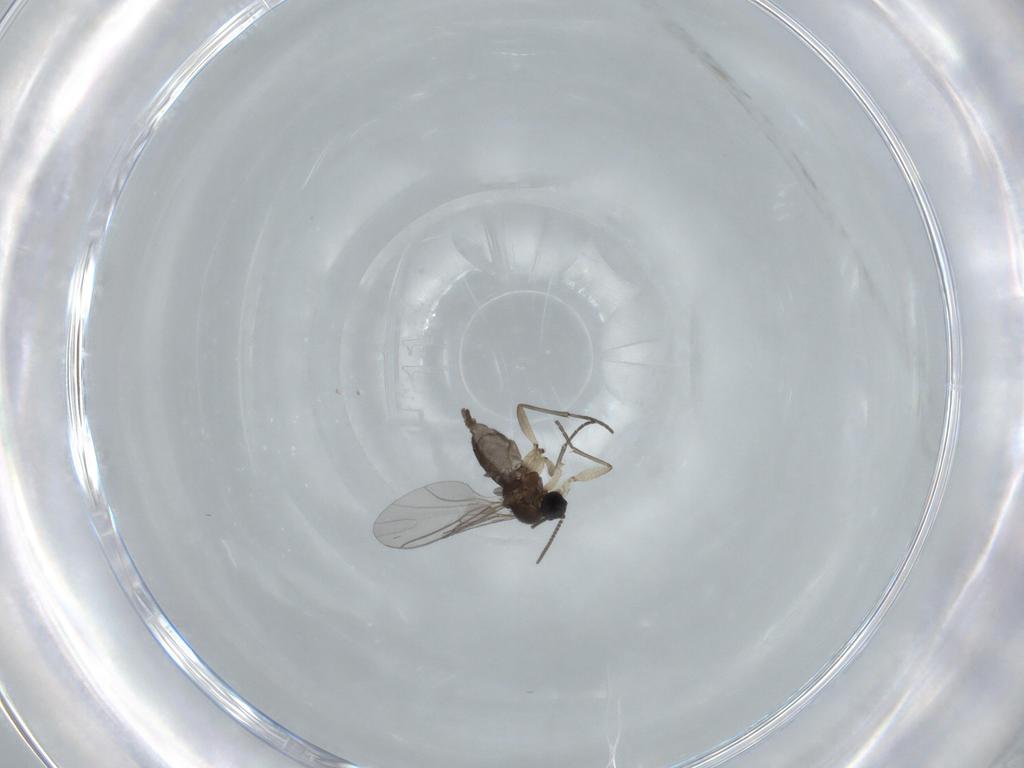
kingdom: Animalia
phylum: Arthropoda
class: Insecta
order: Diptera
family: Sciaridae
